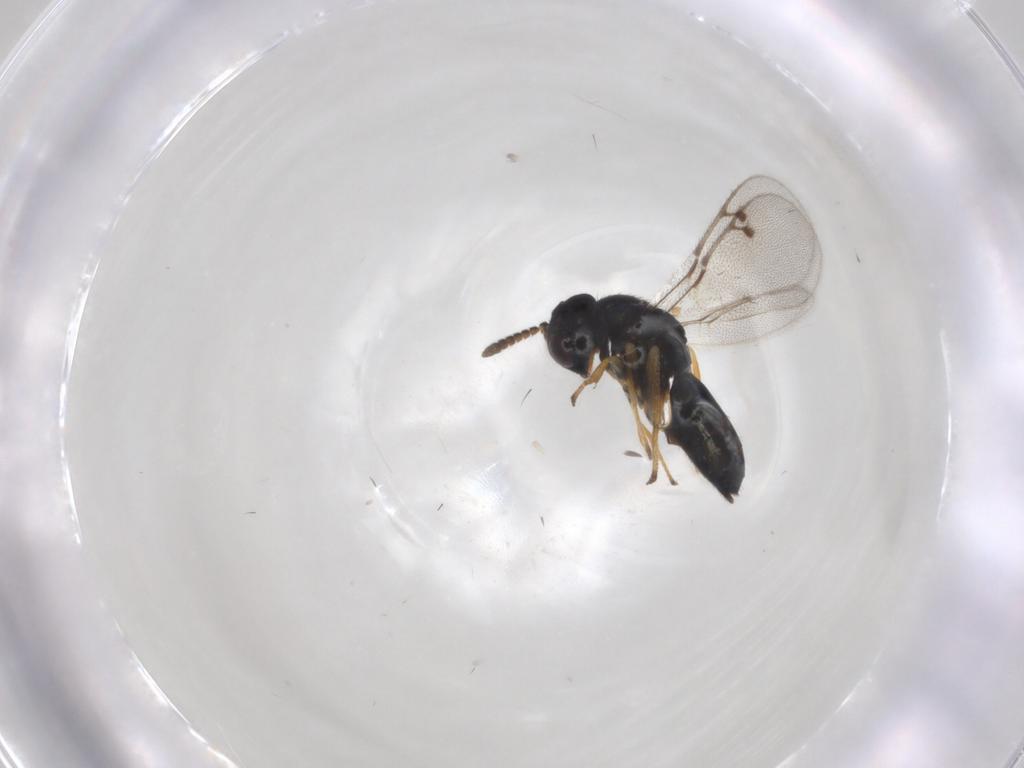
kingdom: Animalia
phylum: Arthropoda
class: Insecta
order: Hymenoptera
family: Pirenidae
